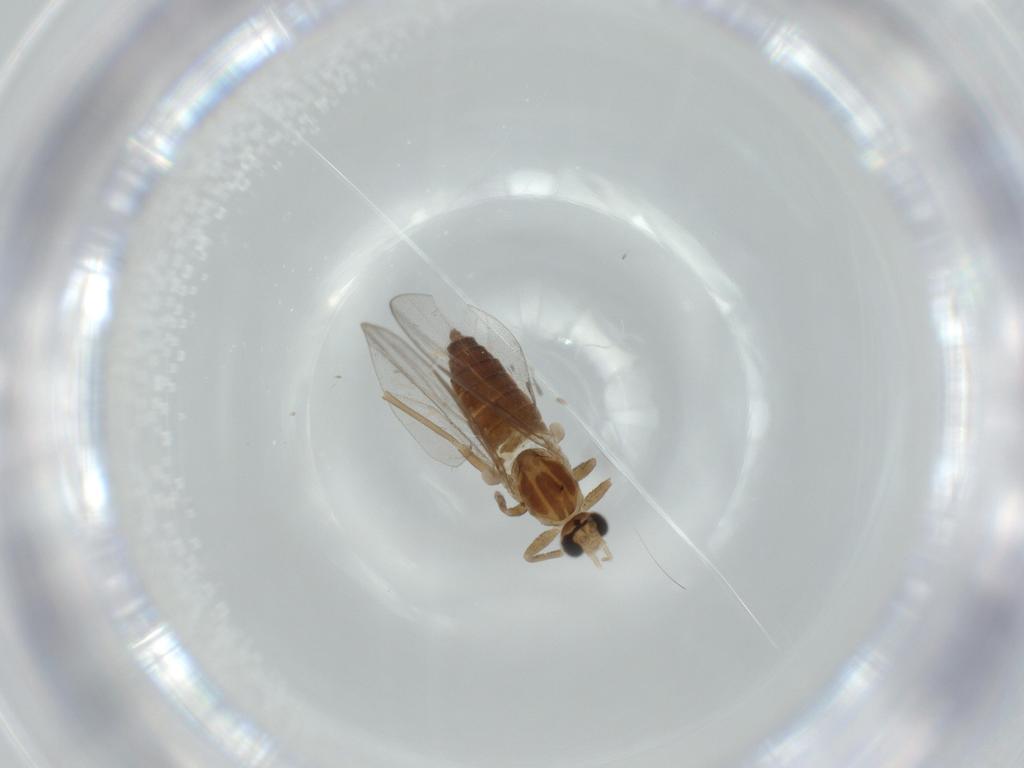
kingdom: Animalia
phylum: Arthropoda
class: Insecta
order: Diptera
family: Cecidomyiidae
